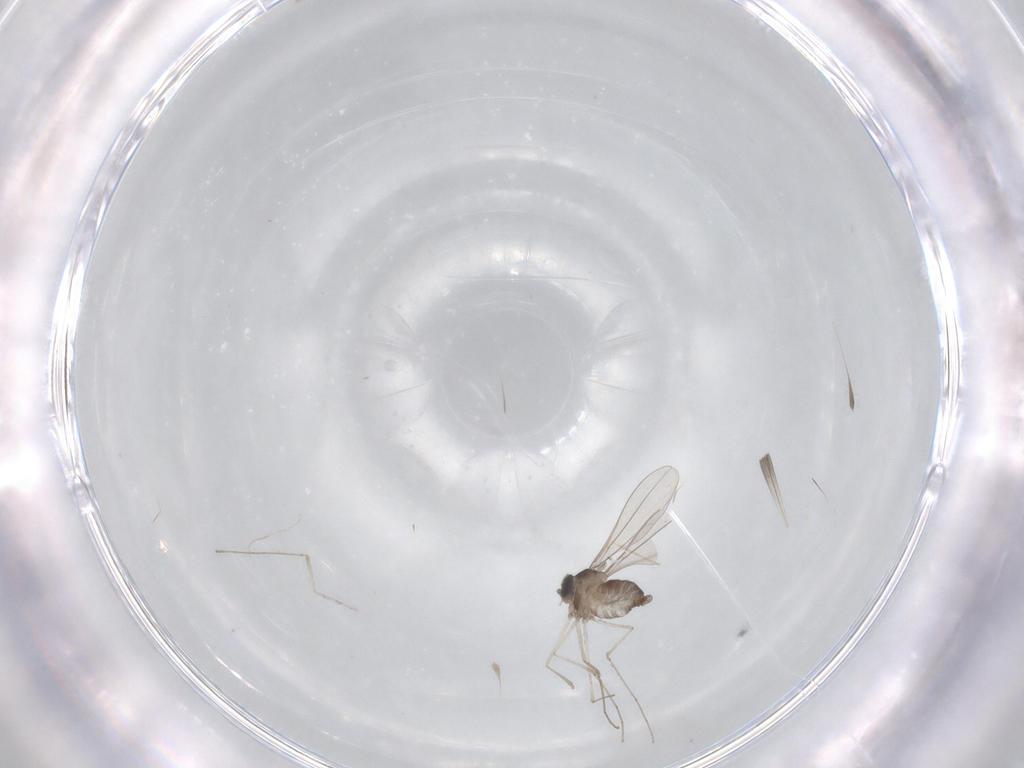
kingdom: Animalia
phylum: Arthropoda
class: Insecta
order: Diptera
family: Cecidomyiidae
